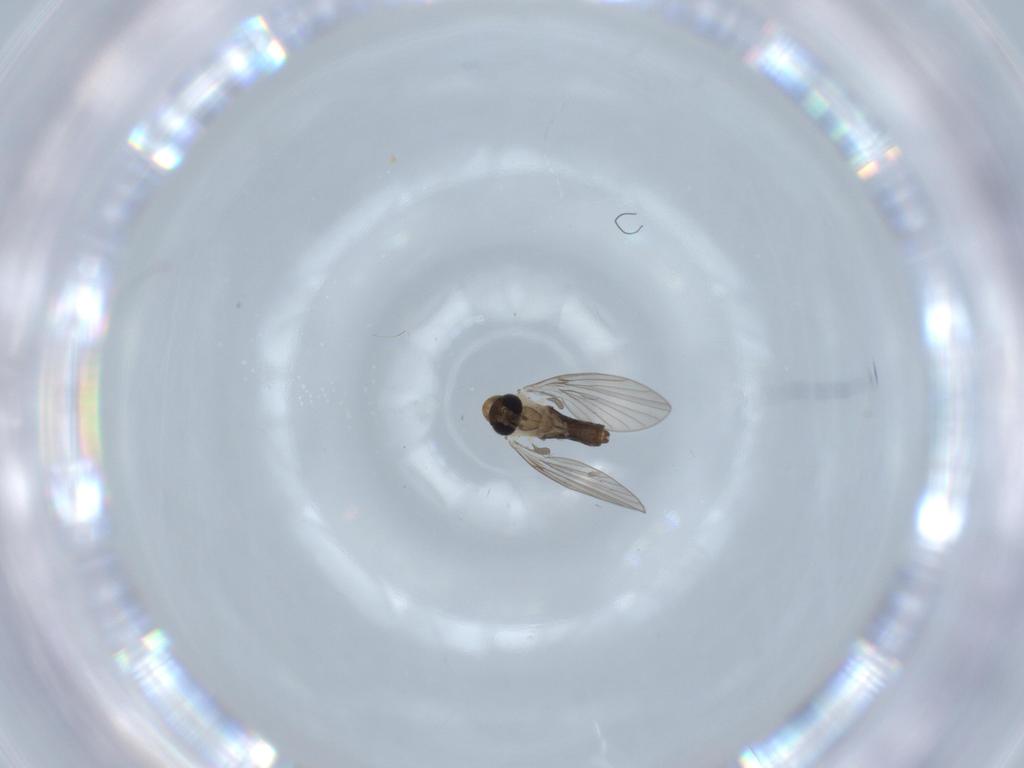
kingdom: Animalia
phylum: Arthropoda
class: Insecta
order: Diptera
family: Psychodidae
